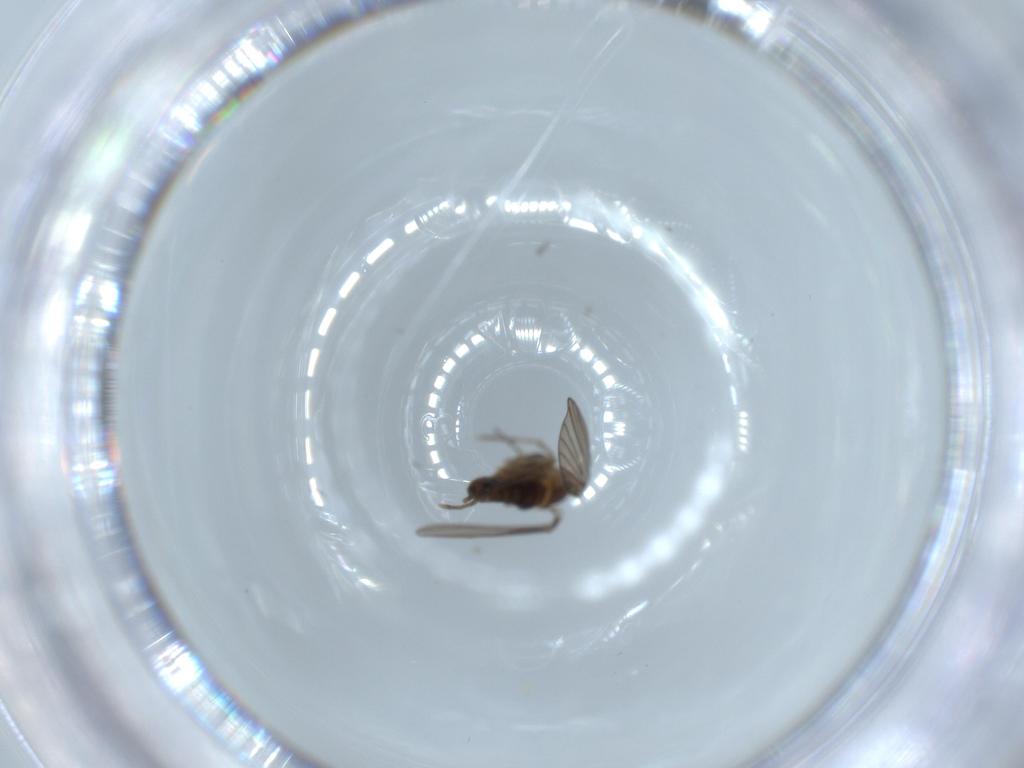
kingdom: Animalia
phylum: Arthropoda
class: Insecta
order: Diptera
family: Psychodidae
